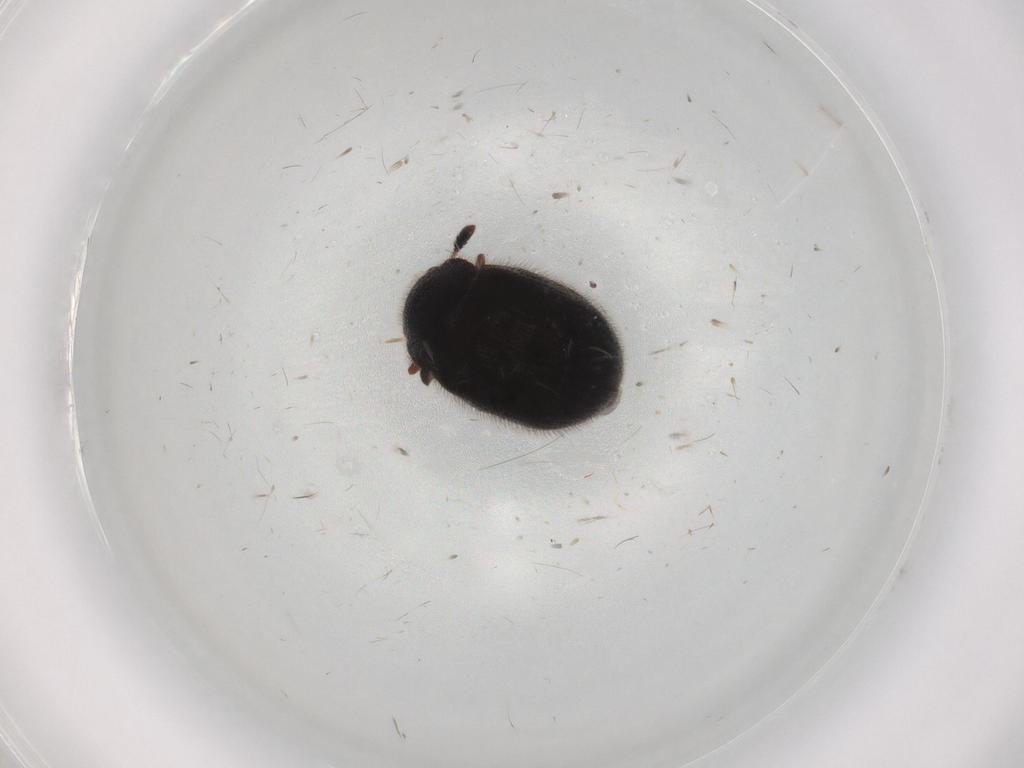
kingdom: Animalia
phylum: Arthropoda
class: Insecta
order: Coleoptera
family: Sphindidae
